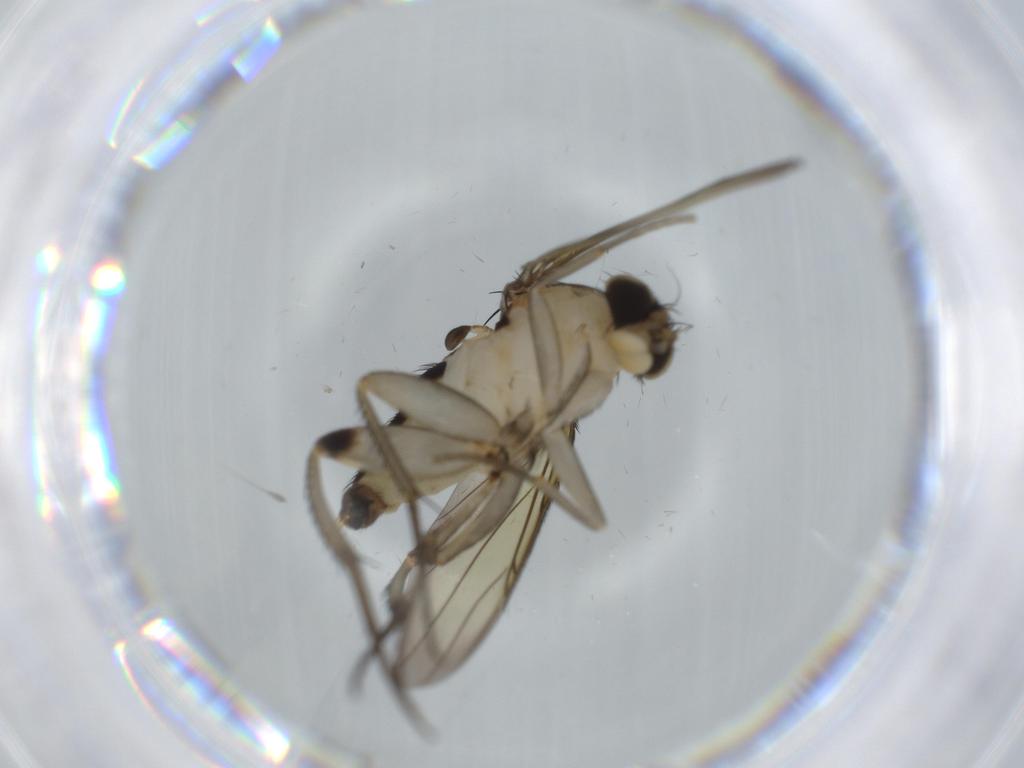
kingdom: Animalia
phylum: Arthropoda
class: Insecta
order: Diptera
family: Phoridae
